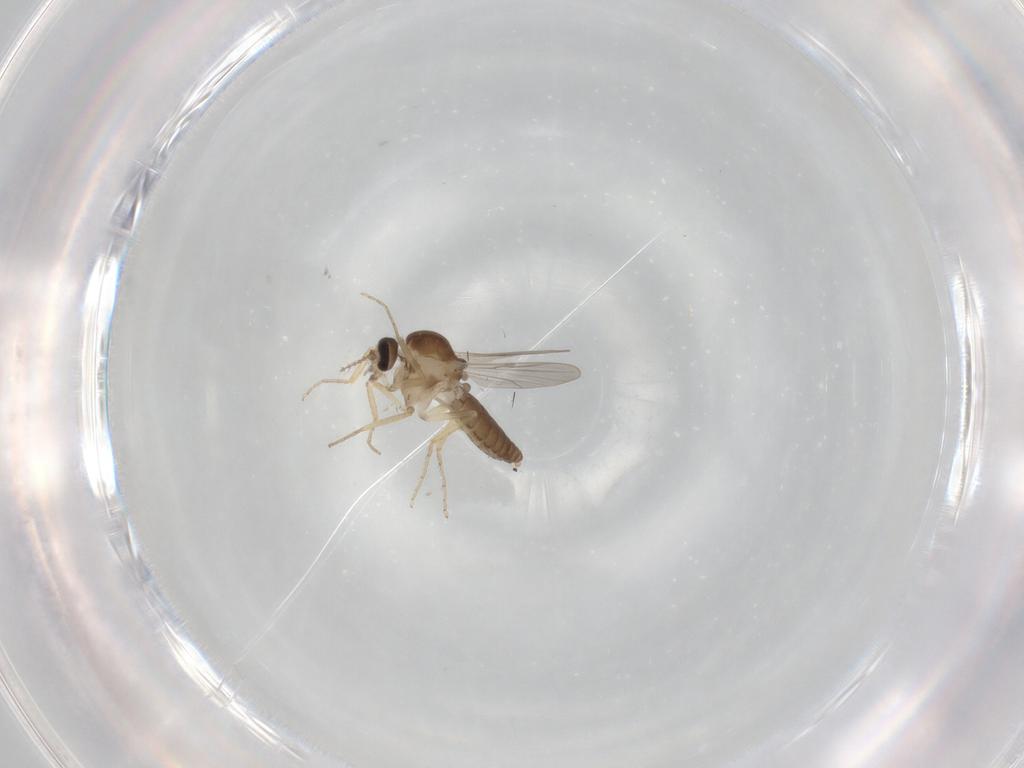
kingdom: Animalia
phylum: Arthropoda
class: Insecta
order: Diptera
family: Ceratopogonidae
